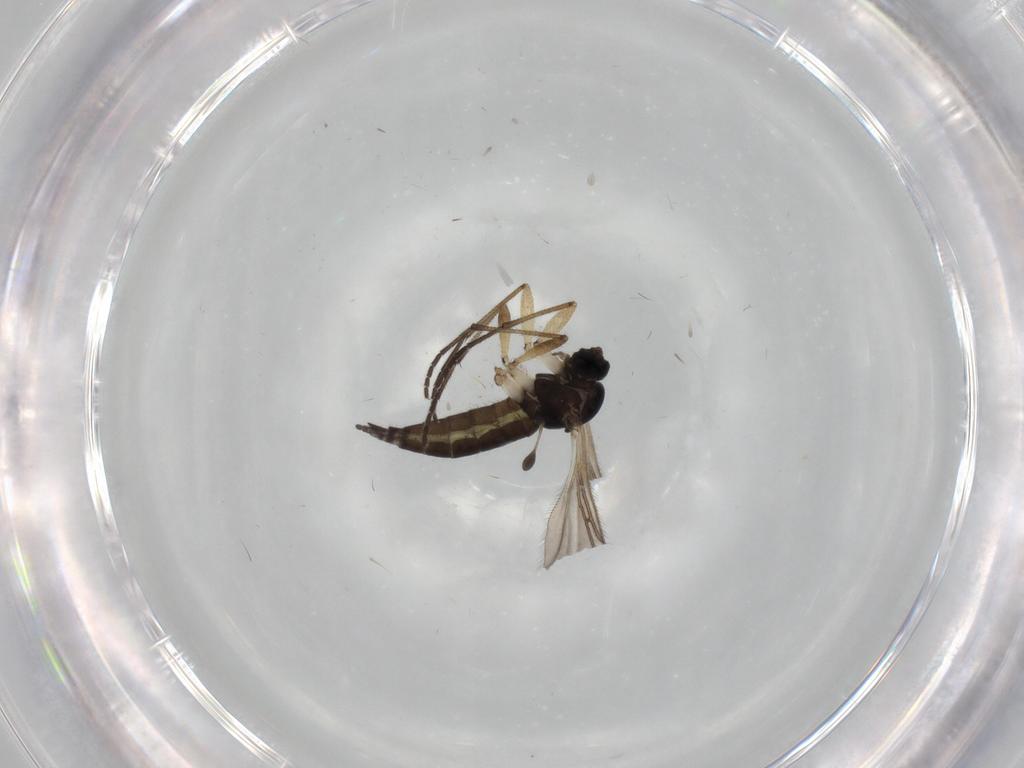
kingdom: Animalia
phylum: Arthropoda
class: Insecta
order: Diptera
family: Sciaridae
